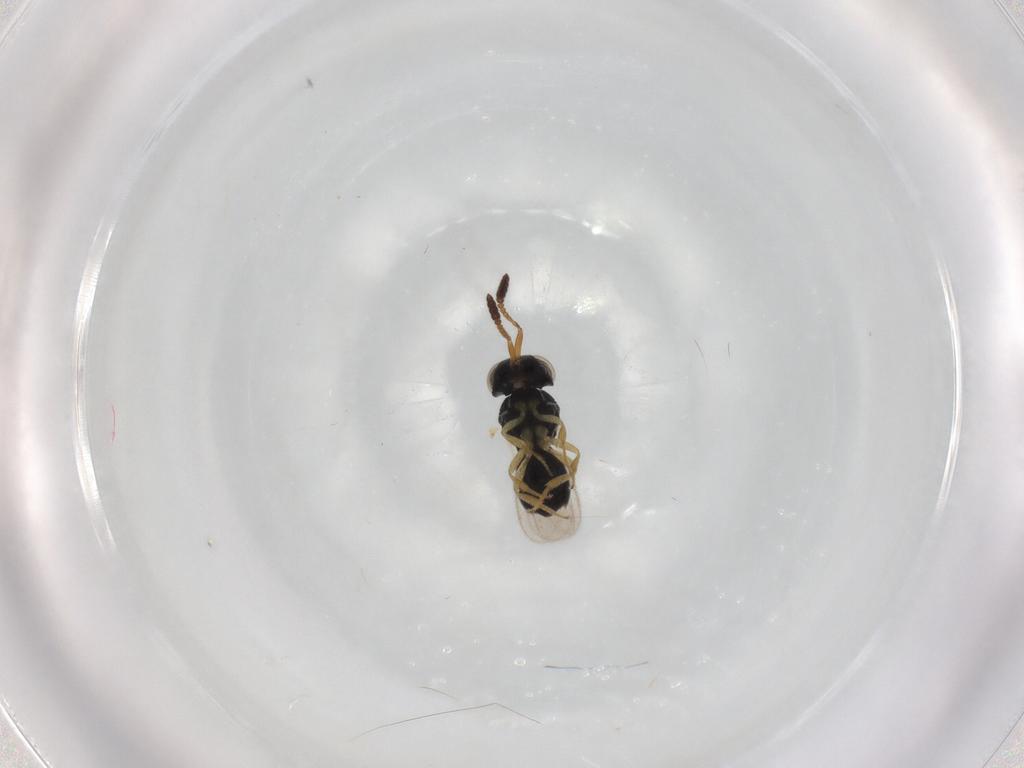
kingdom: Animalia
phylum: Arthropoda
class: Insecta
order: Hymenoptera
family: Scelionidae
